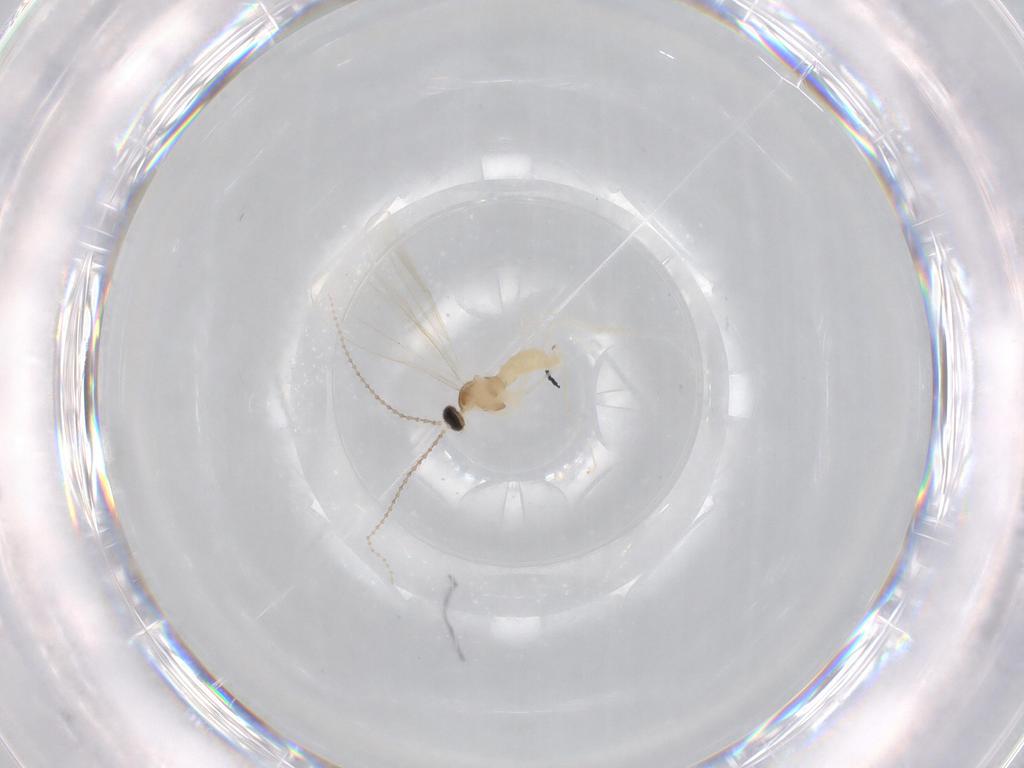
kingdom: Animalia
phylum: Arthropoda
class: Insecta
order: Diptera
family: Cecidomyiidae
